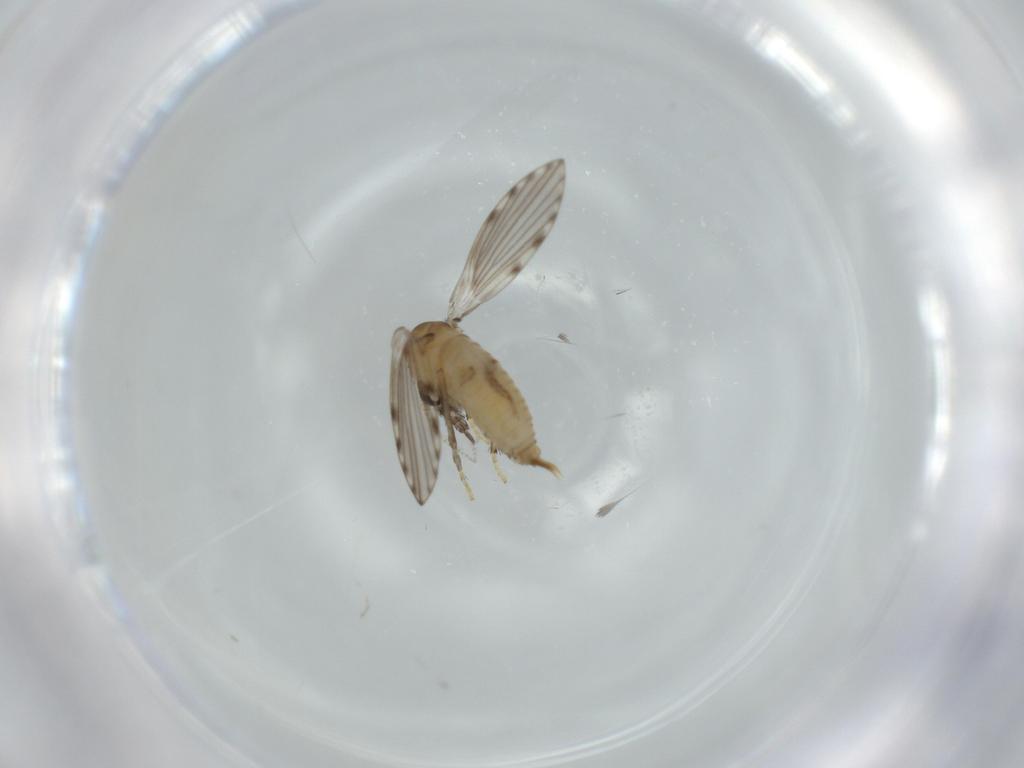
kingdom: Animalia
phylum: Arthropoda
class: Insecta
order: Diptera
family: Psychodidae
